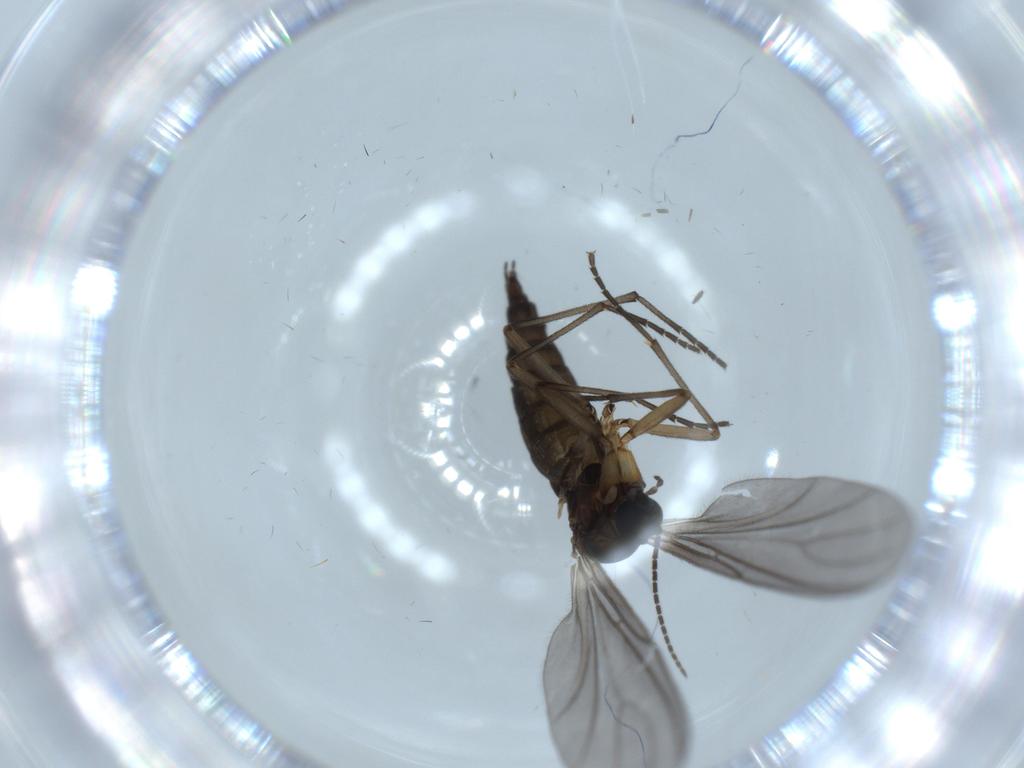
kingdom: Animalia
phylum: Arthropoda
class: Insecta
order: Diptera
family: Sciaridae
